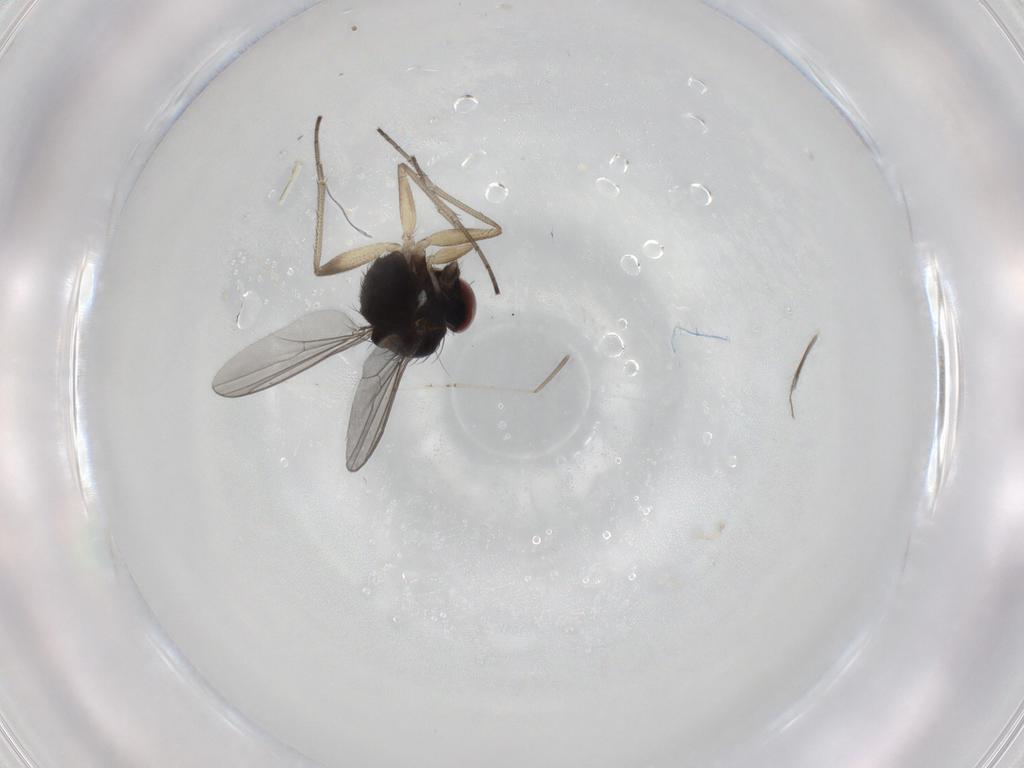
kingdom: Animalia
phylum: Arthropoda
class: Insecta
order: Diptera
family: Dolichopodidae
